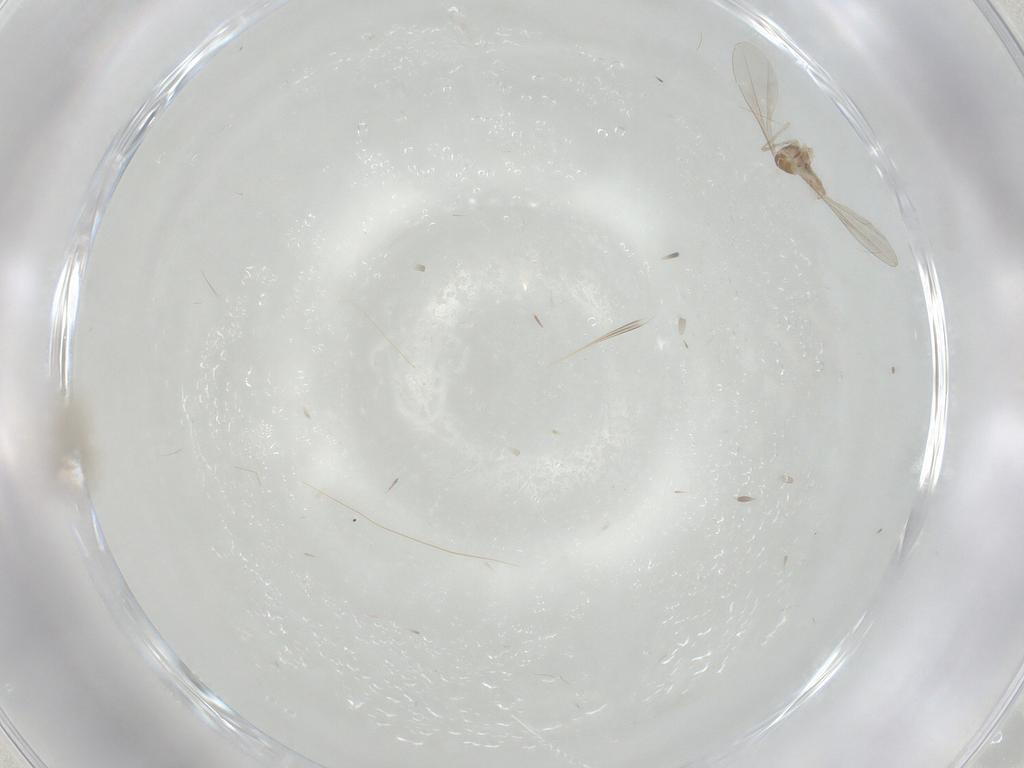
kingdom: Animalia
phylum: Arthropoda
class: Insecta
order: Diptera
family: Cecidomyiidae
